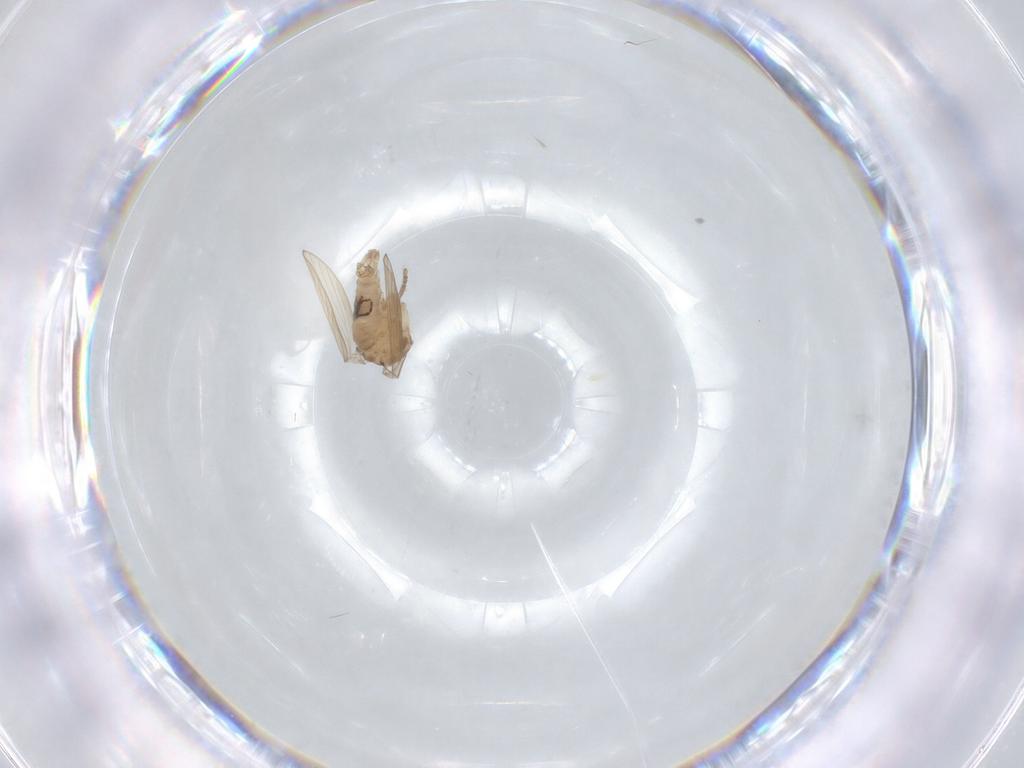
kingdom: Animalia
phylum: Arthropoda
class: Insecta
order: Diptera
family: Psychodidae
